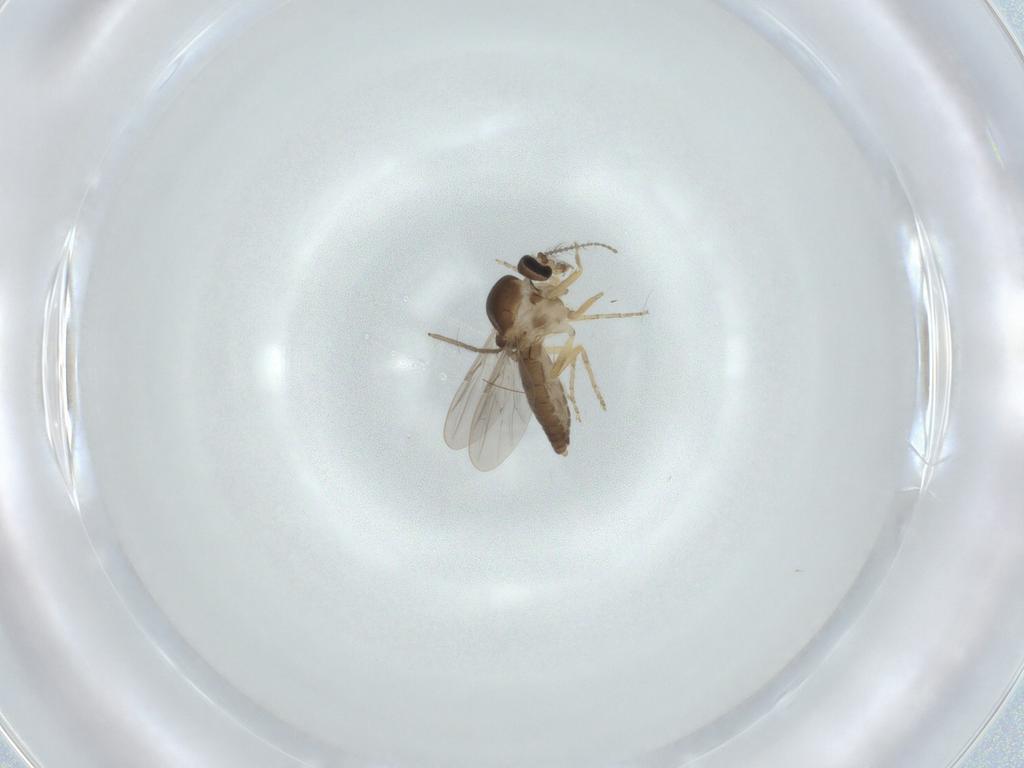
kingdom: Animalia
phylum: Arthropoda
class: Insecta
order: Diptera
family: Ceratopogonidae
